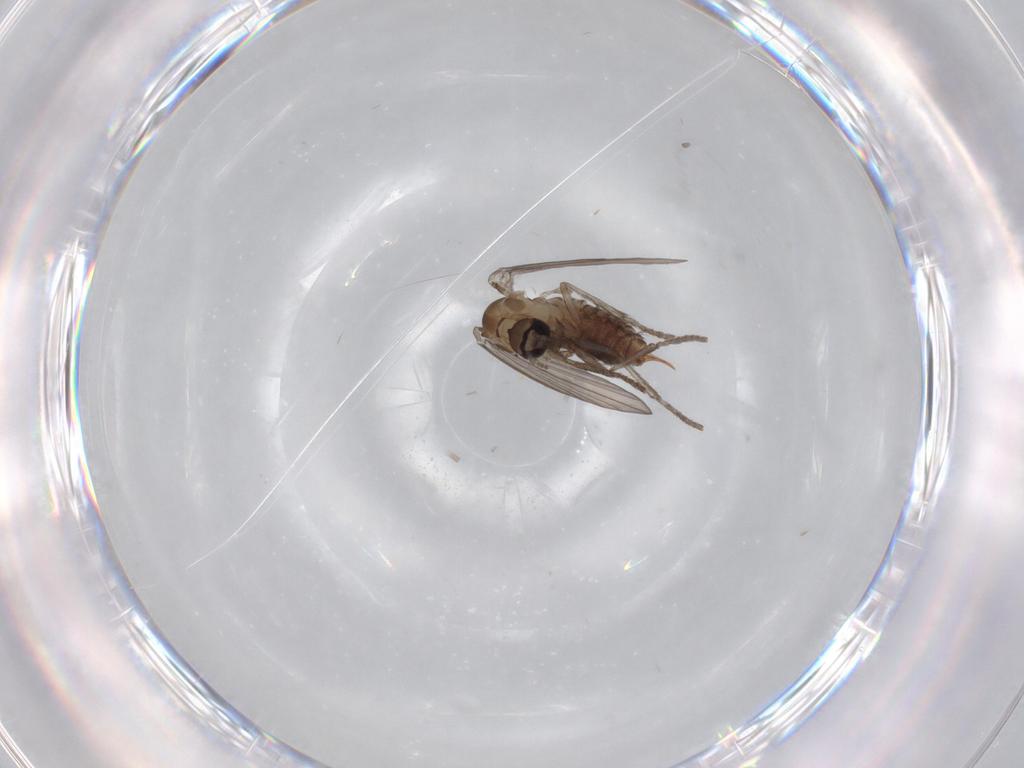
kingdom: Animalia
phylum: Arthropoda
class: Insecta
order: Diptera
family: Psychodidae
